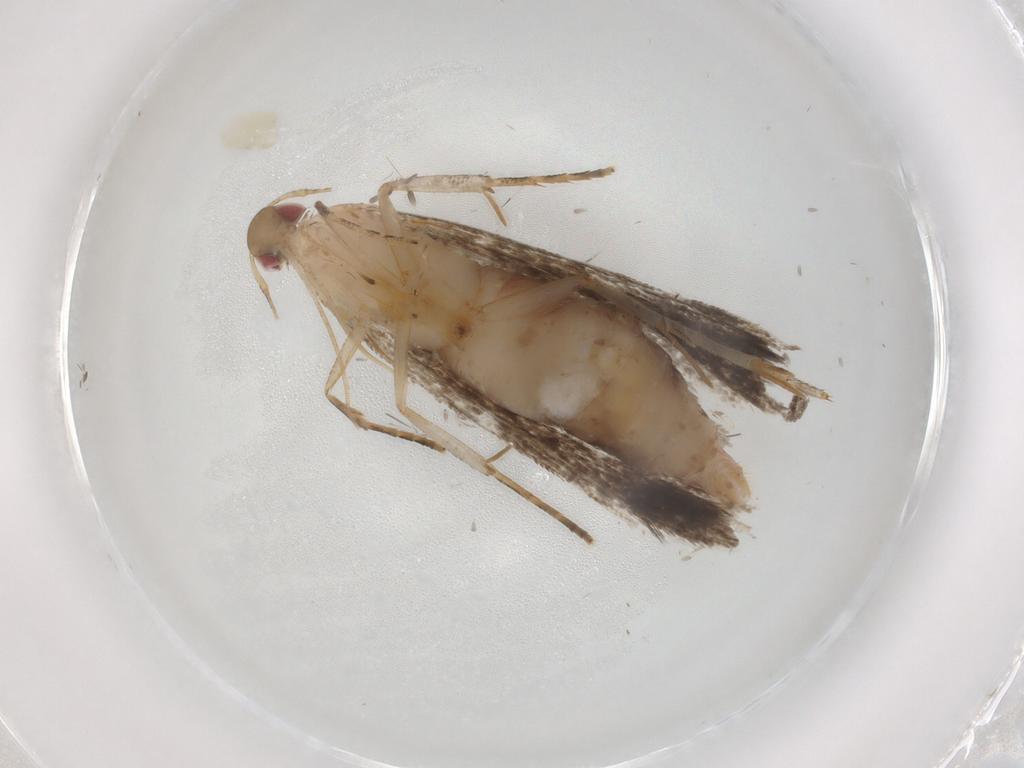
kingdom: Animalia
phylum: Arthropoda
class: Insecta
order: Lepidoptera
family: Gelechiidae
